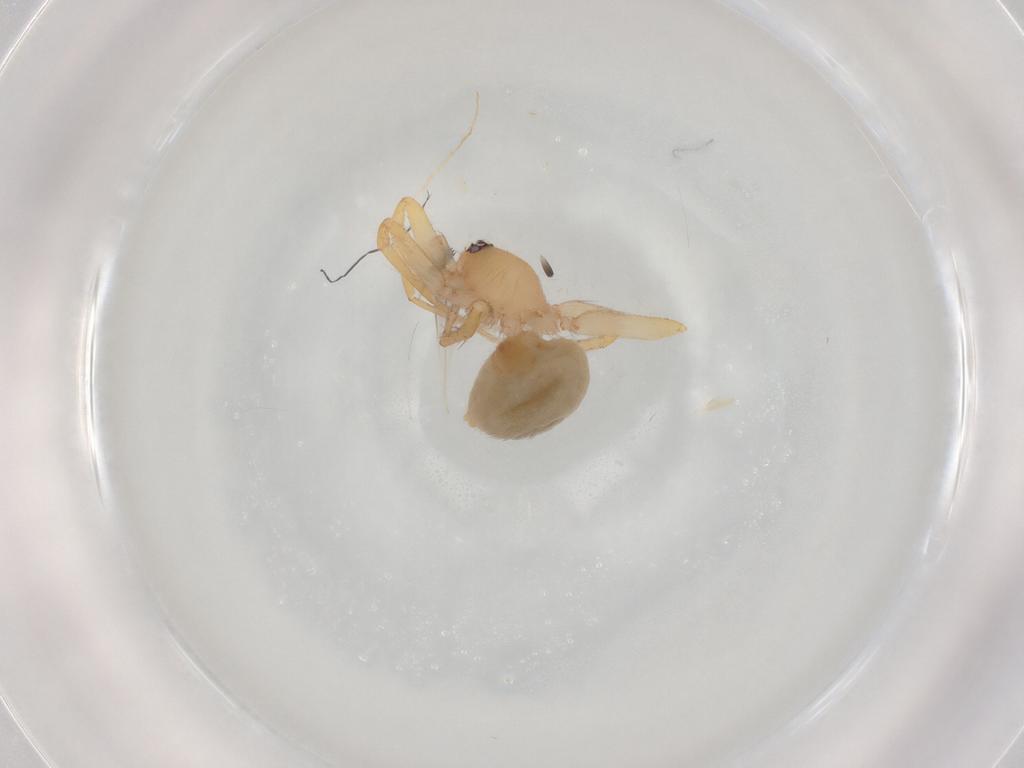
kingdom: Animalia
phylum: Arthropoda
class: Arachnida
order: Araneae
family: Oonopidae
